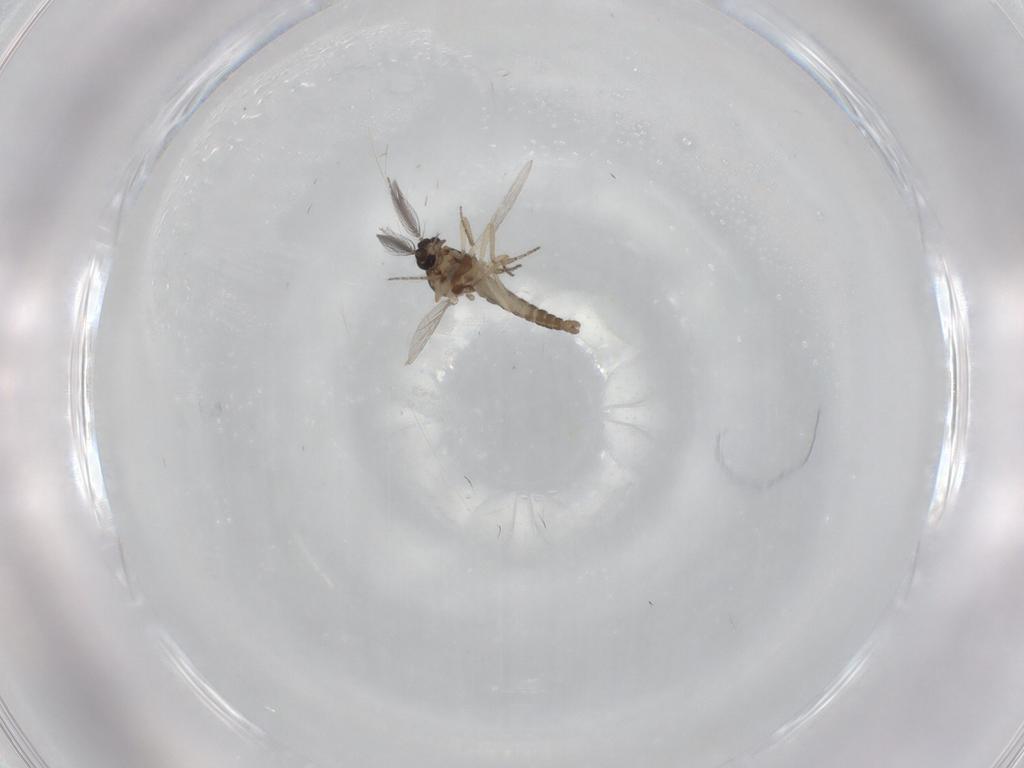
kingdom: Animalia
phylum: Arthropoda
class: Insecta
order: Diptera
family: Ceratopogonidae
